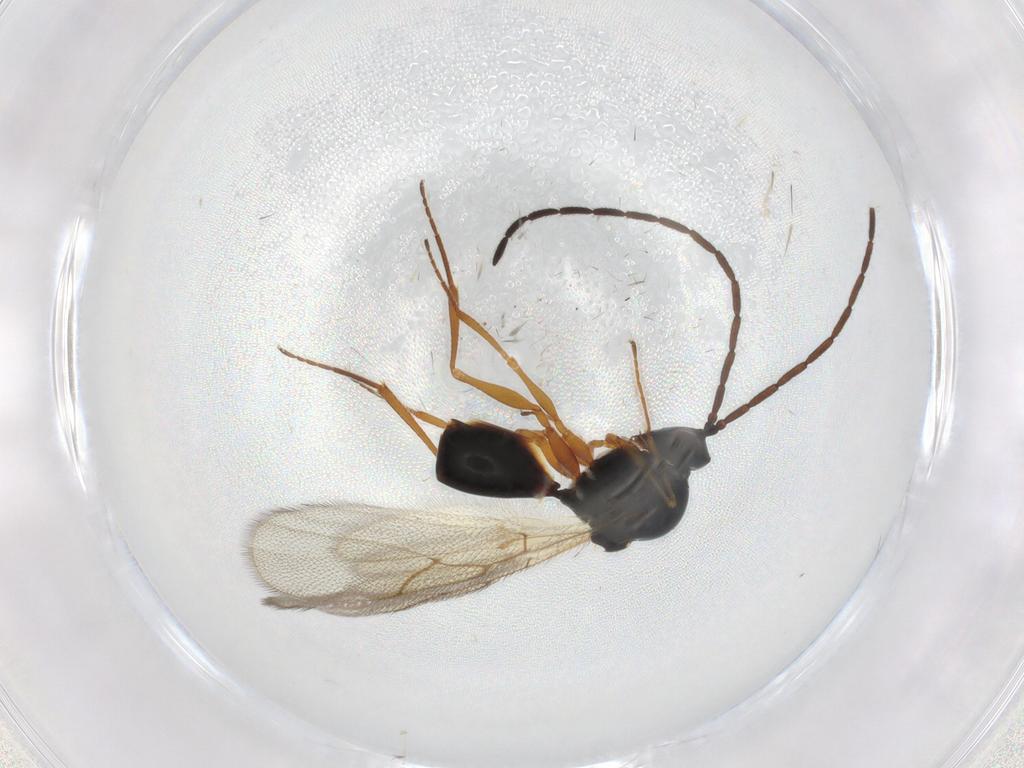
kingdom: Animalia
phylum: Arthropoda
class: Insecta
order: Hymenoptera
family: Figitidae
